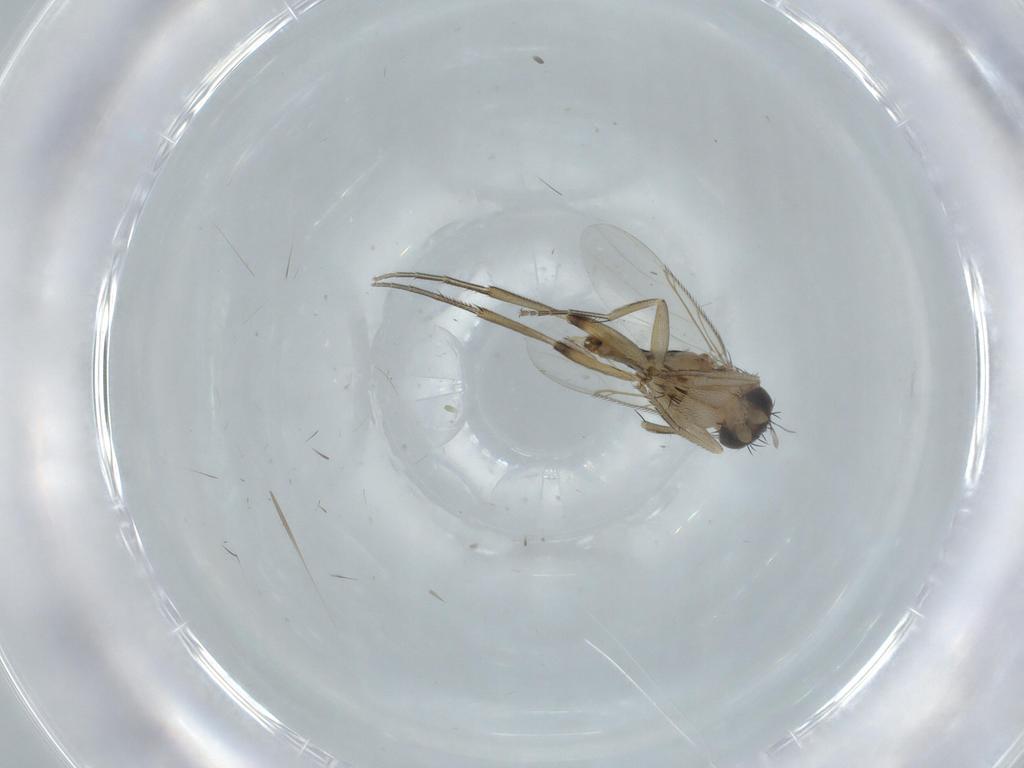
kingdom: Animalia
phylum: Arthropoda
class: Insecta
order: Diptera
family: Drosophilidae
